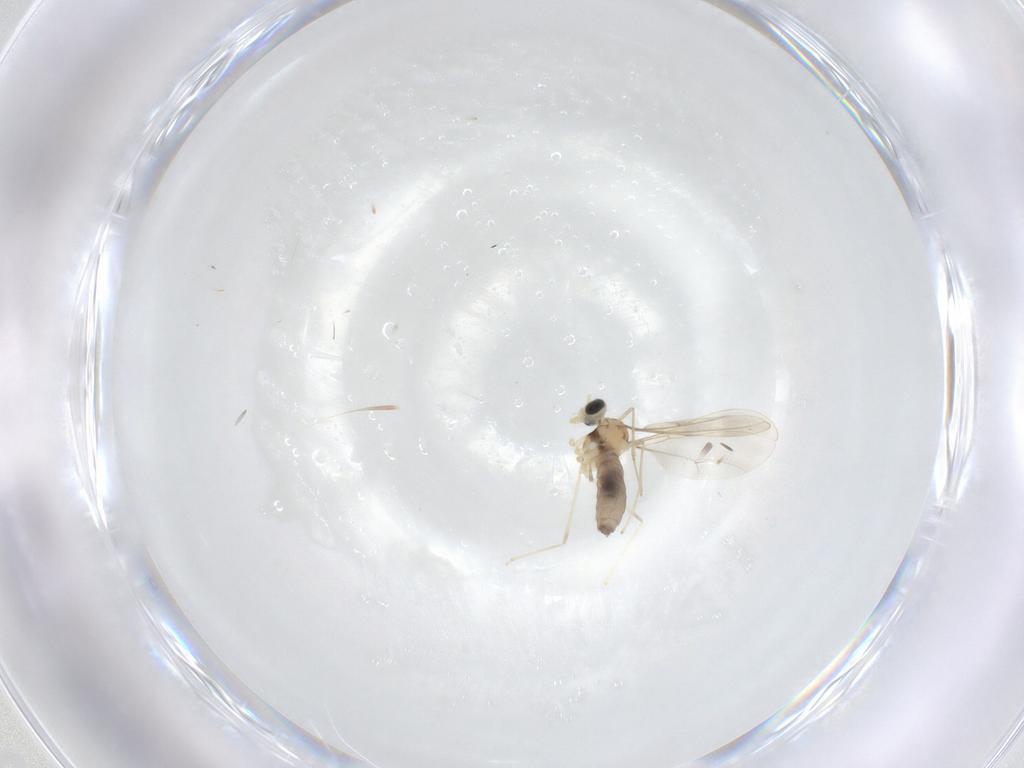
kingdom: Animalia
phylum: Arthropoda
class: Insecta
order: Diptera
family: Cecidomyiidae
